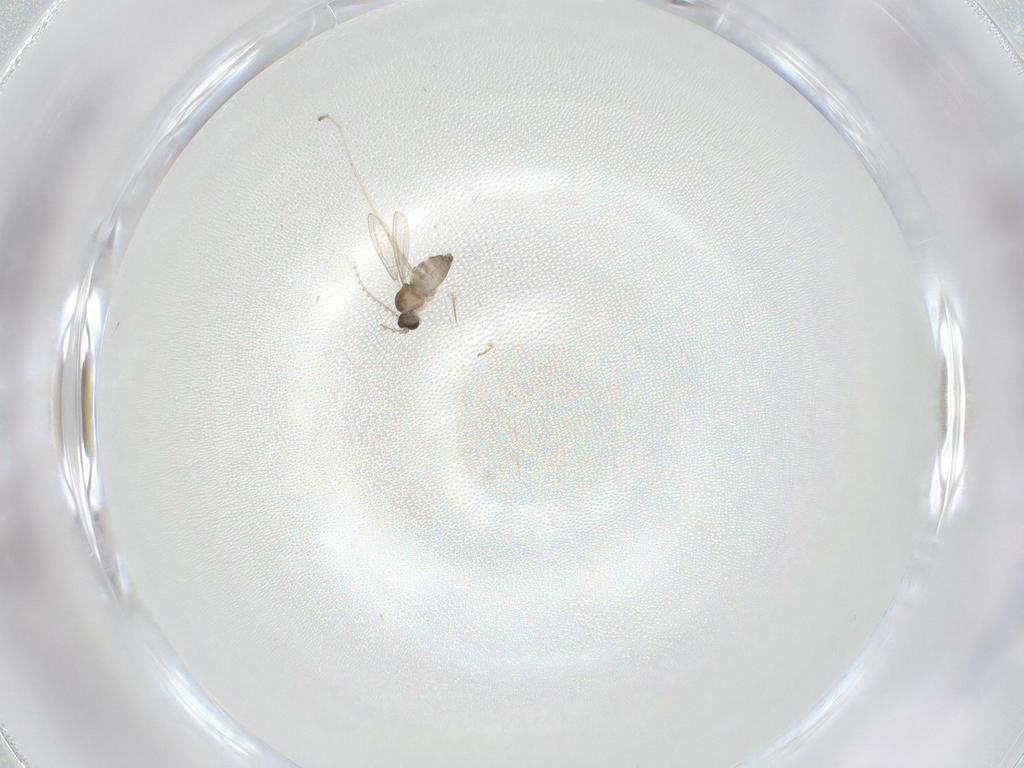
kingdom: Animalia
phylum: Arthropoda
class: Insecta
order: Diptera
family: Cecidomyiidae
